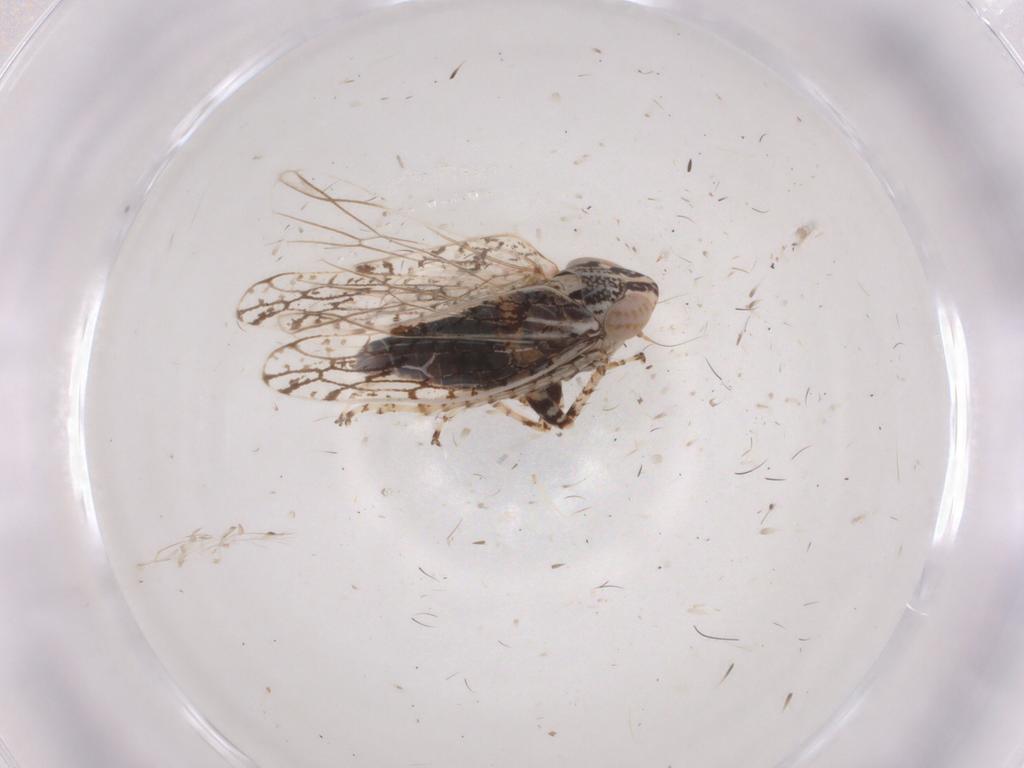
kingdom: Animalia
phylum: Arthropoda
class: Insecta
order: Hemiptera
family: Cicadellidae
